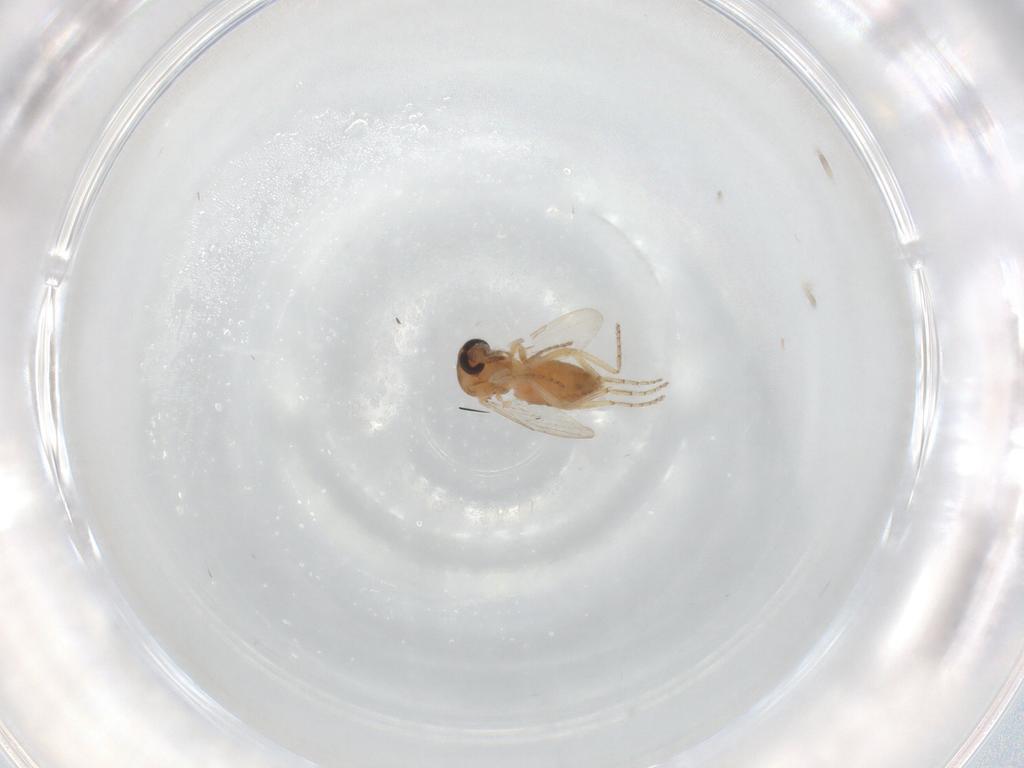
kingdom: Animalia
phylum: Arthropoda
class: Insecta
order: Diptera
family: Ceratopogonidae
